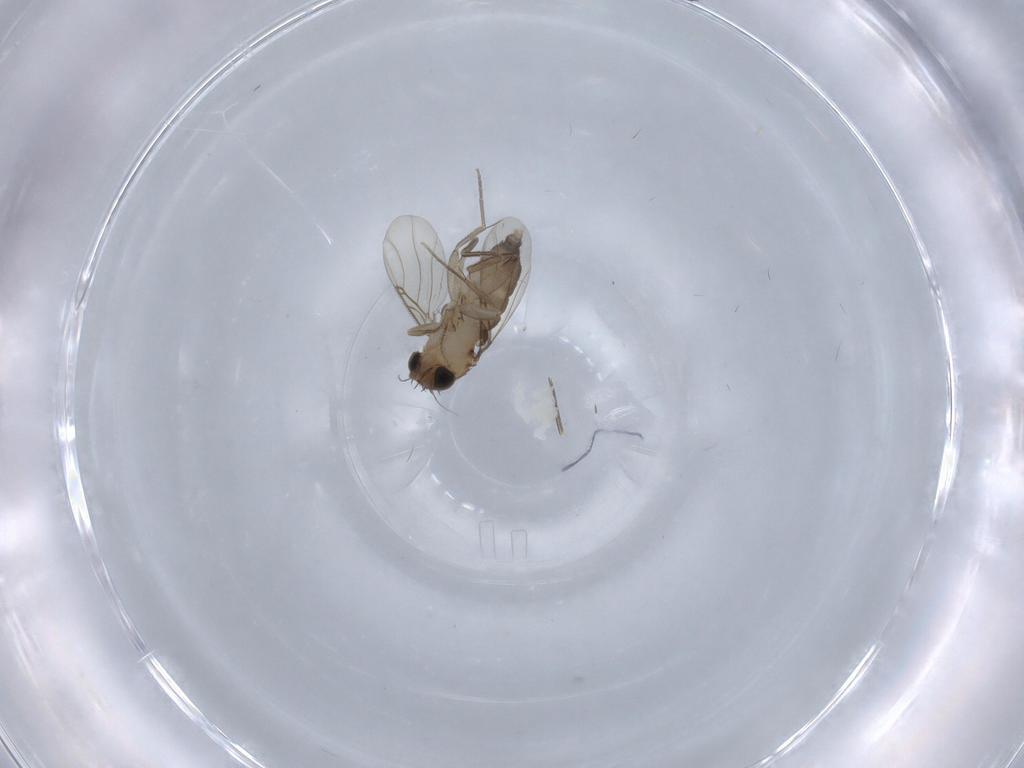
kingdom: Animalia
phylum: Arthropoda
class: Insecta
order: Diptera
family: Phoridae
